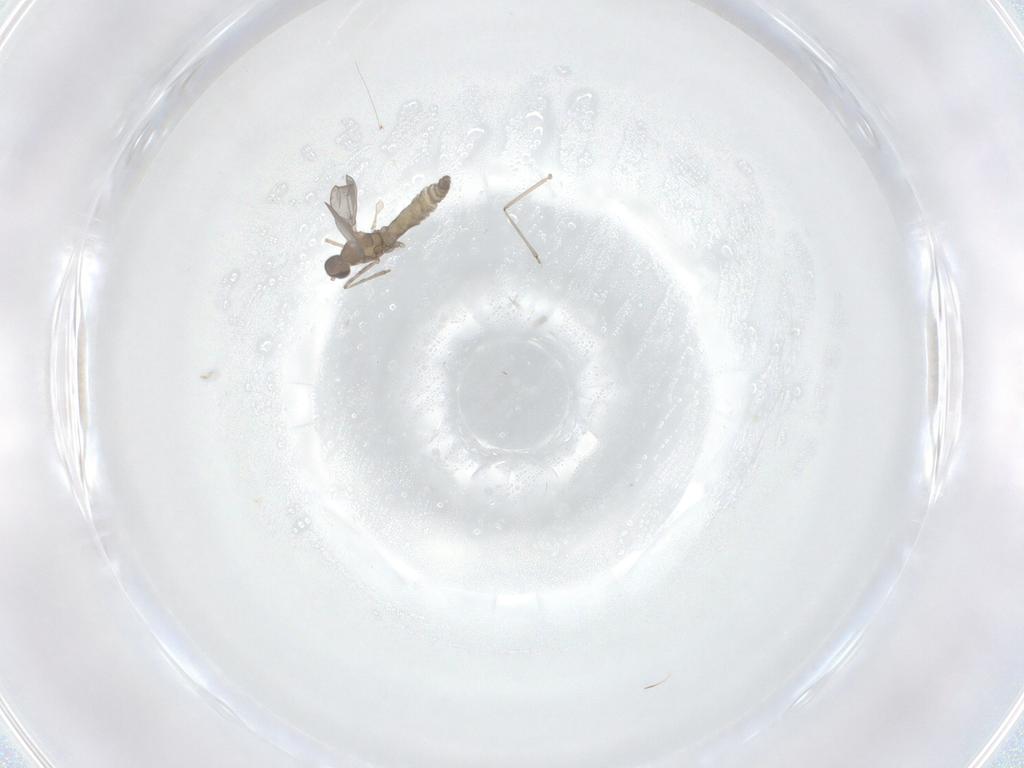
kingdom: Animalia
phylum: Arthropoda
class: Insecta
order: Diptera
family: Cecidomyiidae
